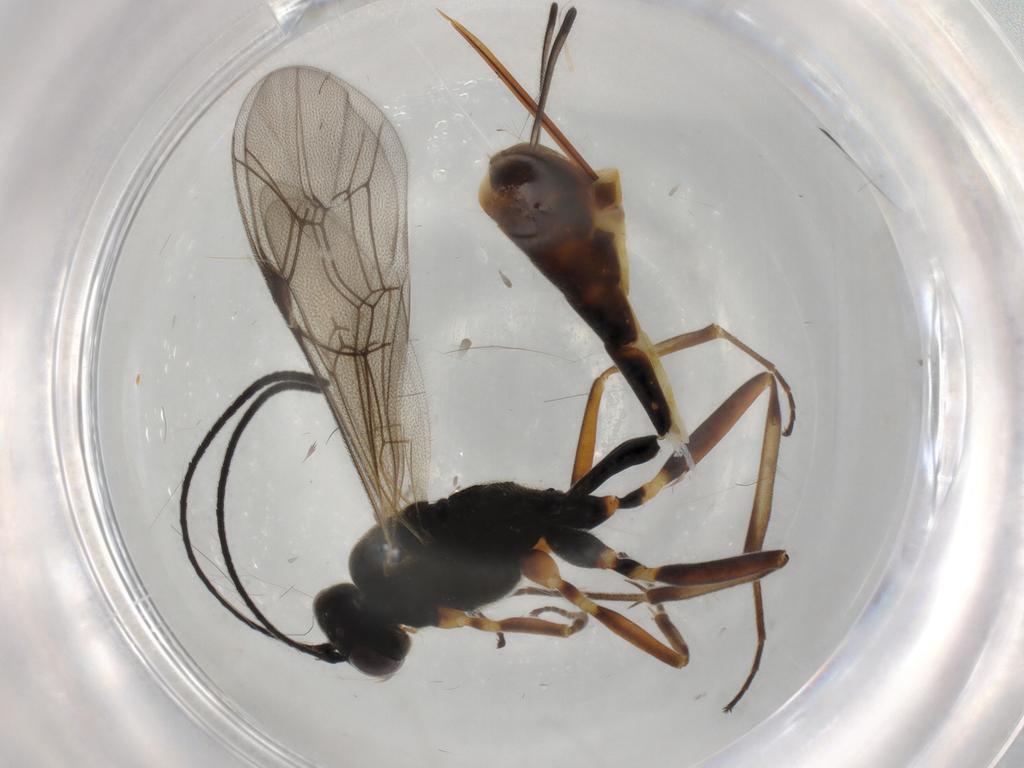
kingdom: Animalia
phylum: Arthropoda
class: Insecta
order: Hymenoptera
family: Ichneumonidae
